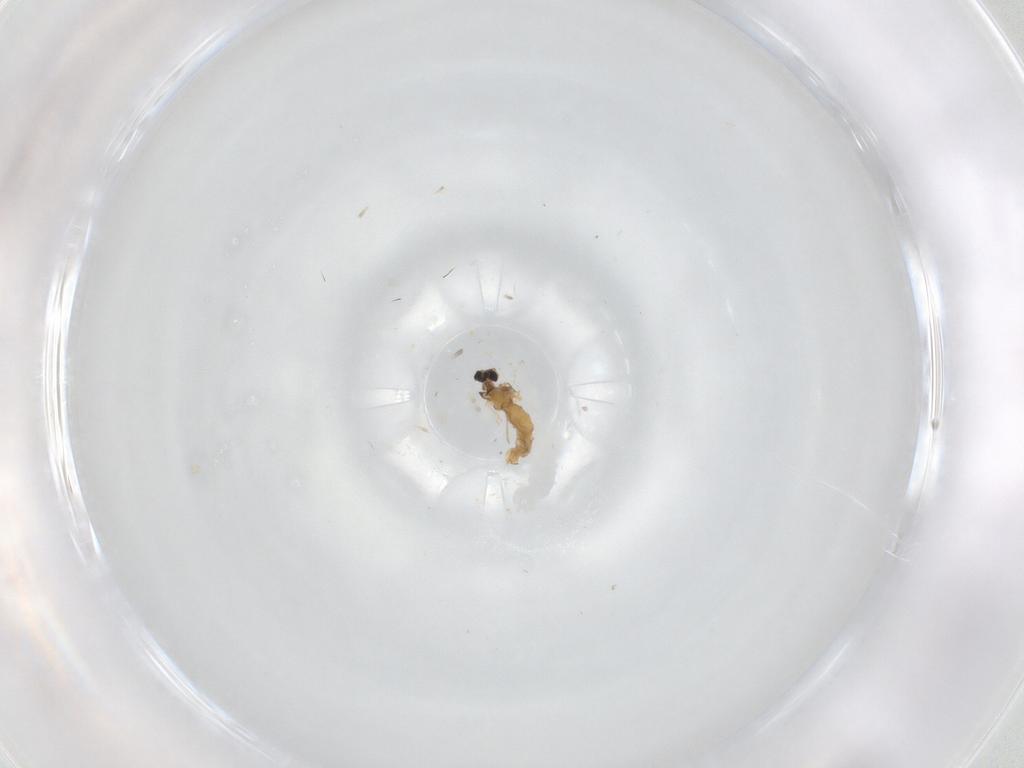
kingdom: Animalia
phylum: Arthropoda
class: Insecta
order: Diptera
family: Cecidomyiidae
